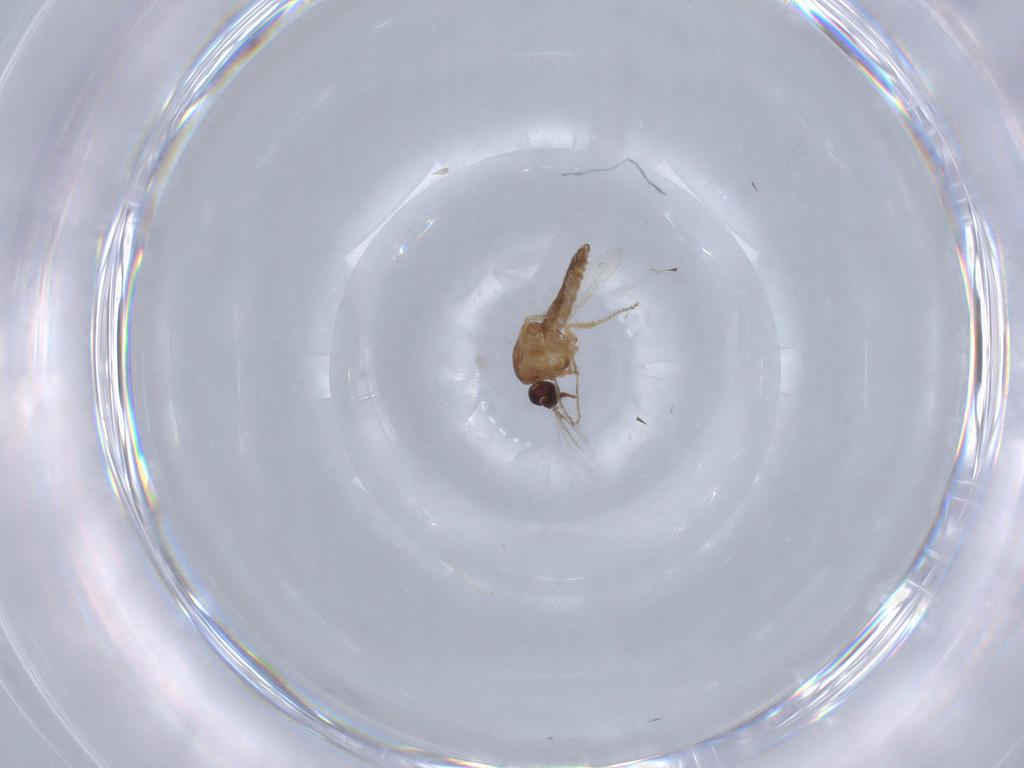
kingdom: Animalia
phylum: Arthropoda
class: Insecta
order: Diptera
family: Ceratopogonidae
